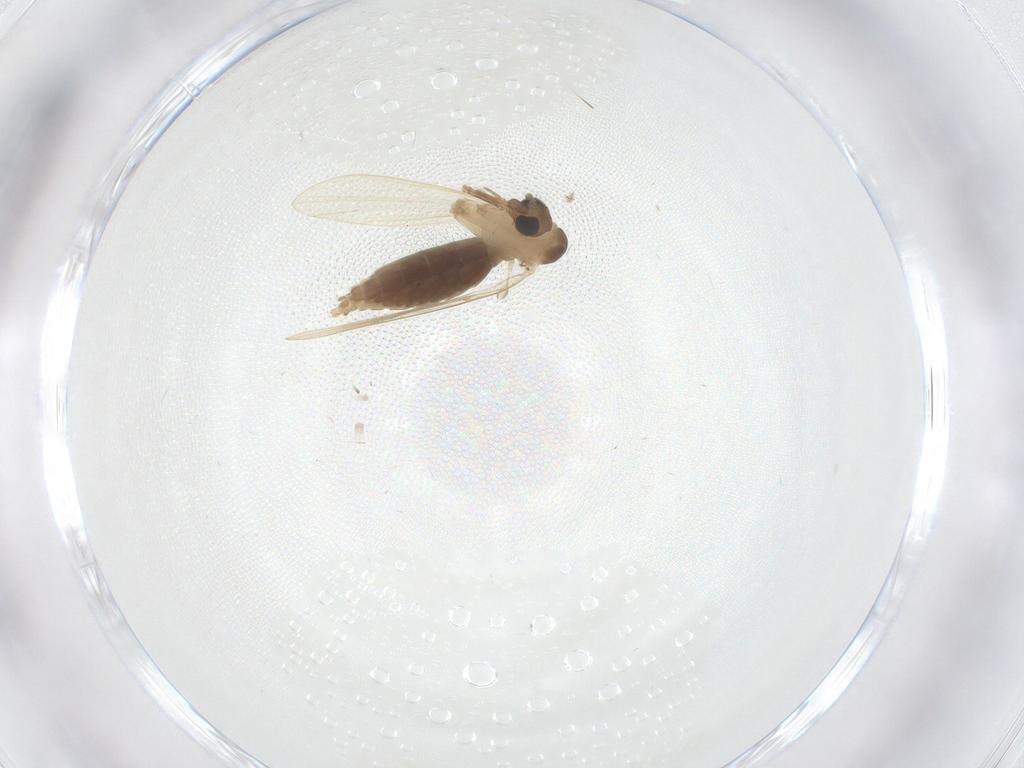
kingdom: Animalia
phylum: Arthropoda
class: Insecta
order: Diptera
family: Psychodidae
